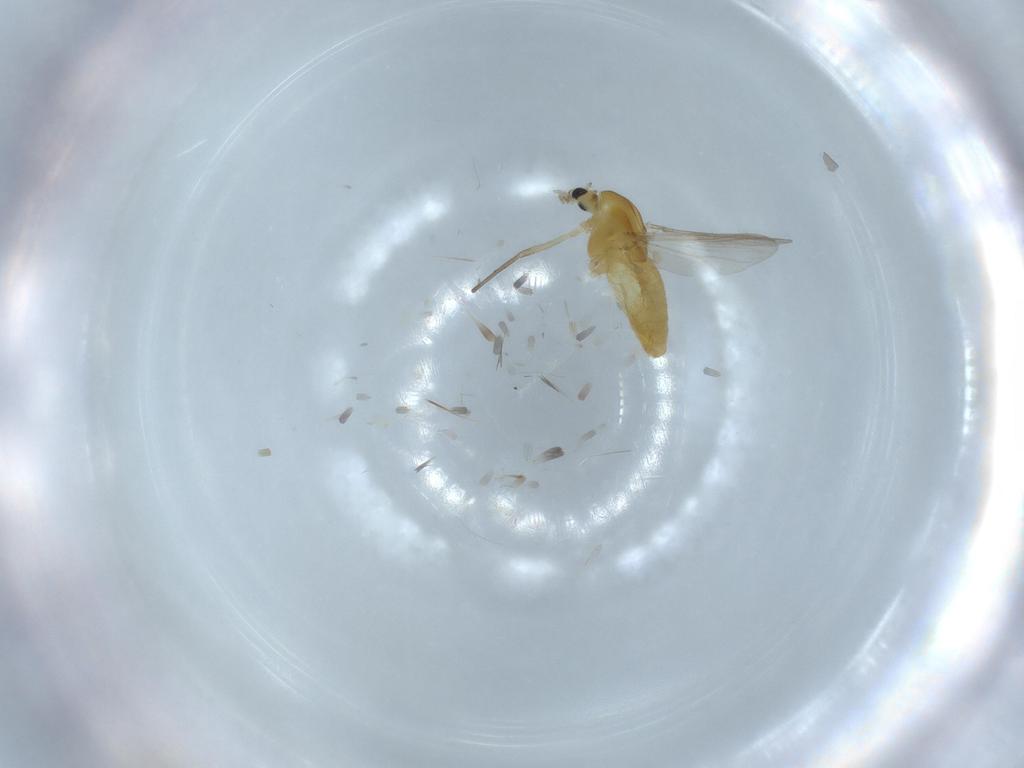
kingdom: Animalia
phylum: Arthropoda
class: Insecta
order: Diptera
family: Chironomidae
